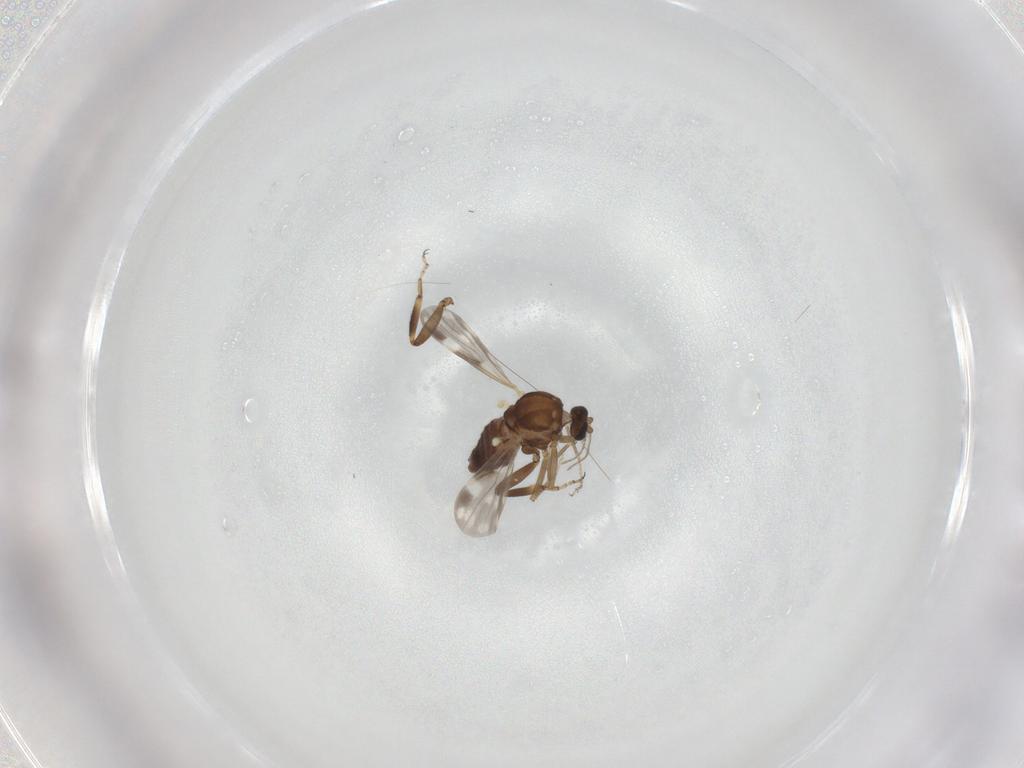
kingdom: Animalia
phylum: Arthropoda
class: Insecta
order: Diptera
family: Ceratopogonidae
